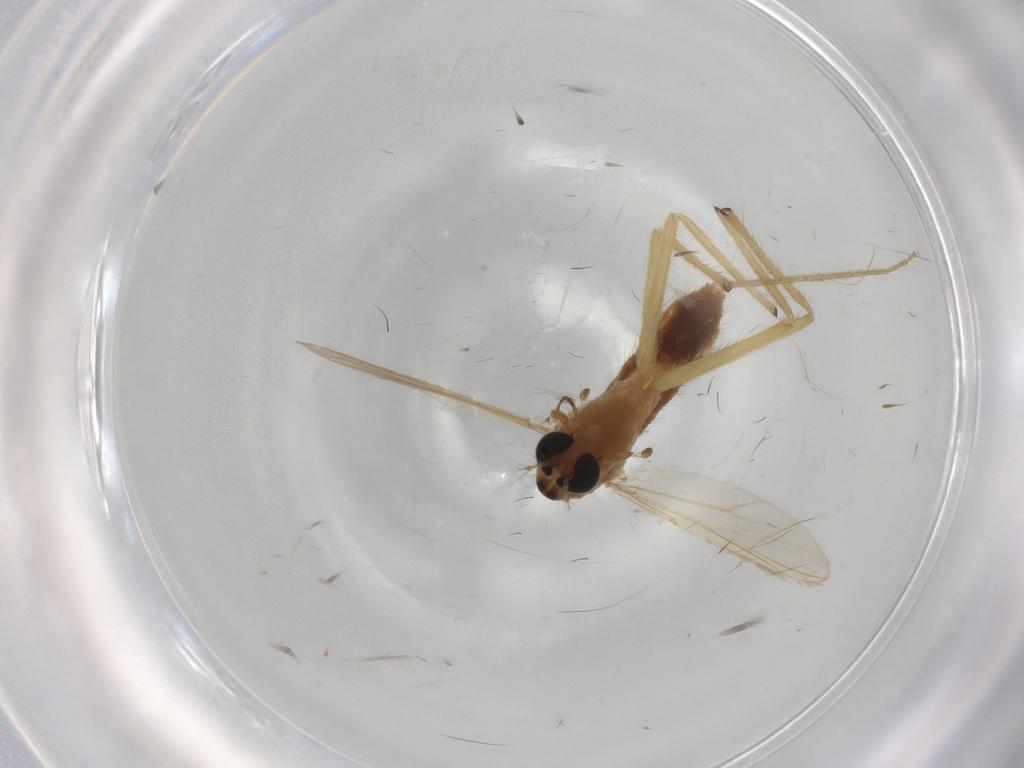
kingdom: Animalia
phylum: Arthropoda
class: Insecta
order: Diptera
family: Chironomidae
